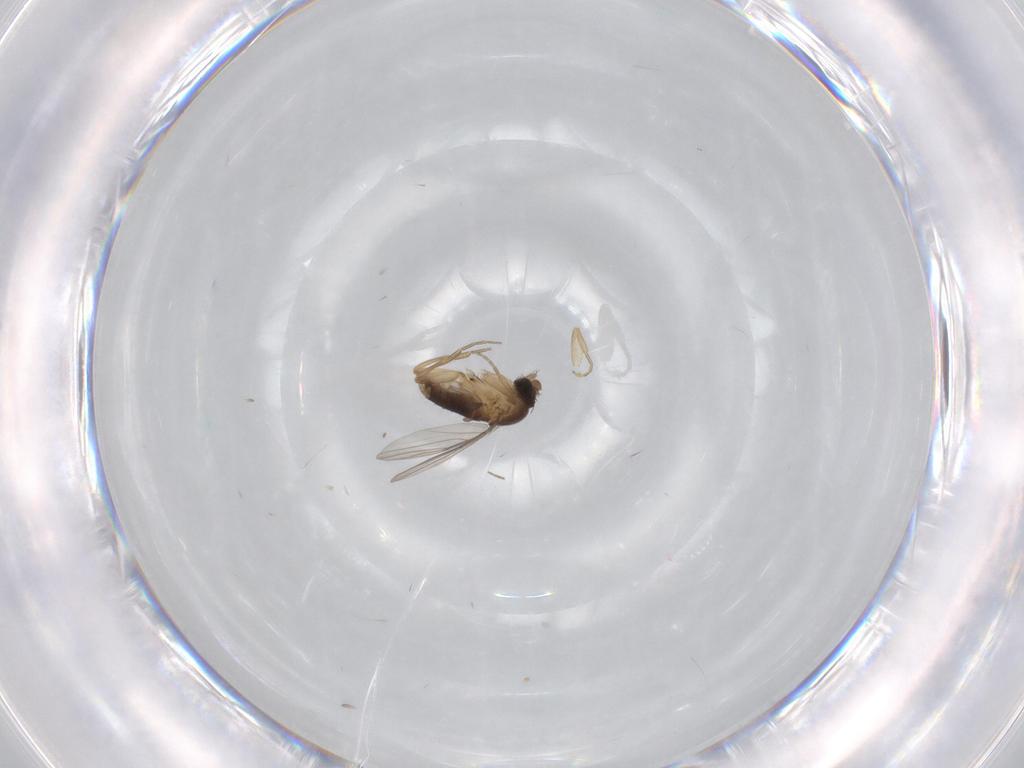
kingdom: Animalia
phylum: Arthropoda
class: Insecta
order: Diptera
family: Phoridae
